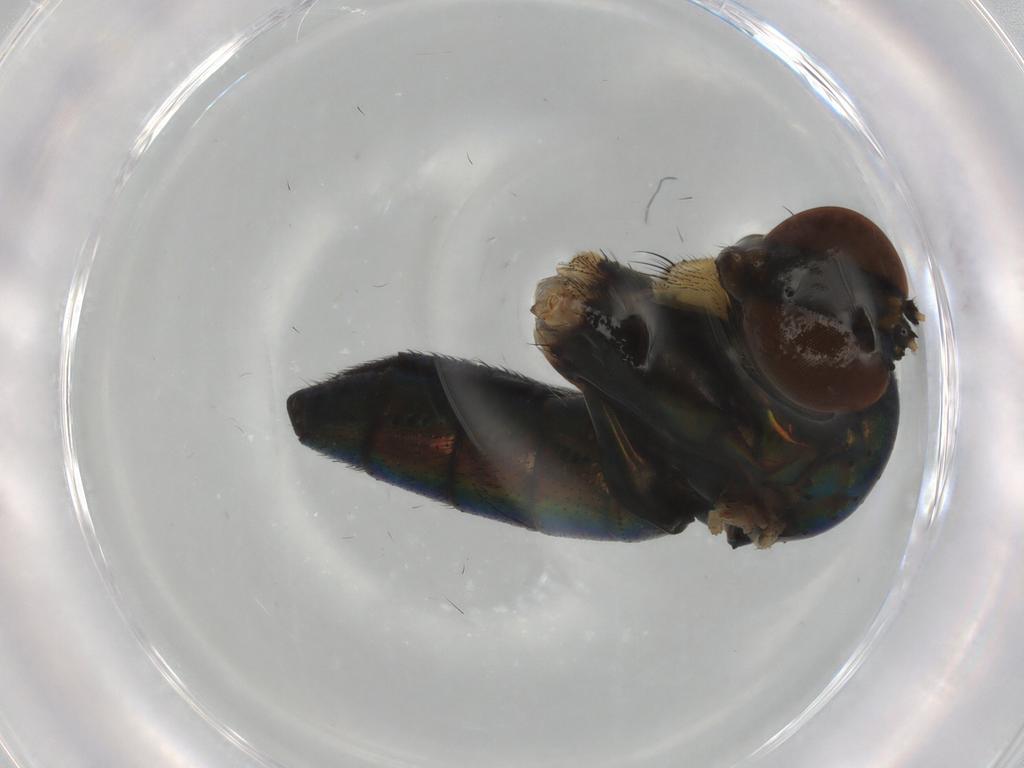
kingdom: Animalia
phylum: Arthropoda
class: Insecta
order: Diptera
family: Dolichopodidae
